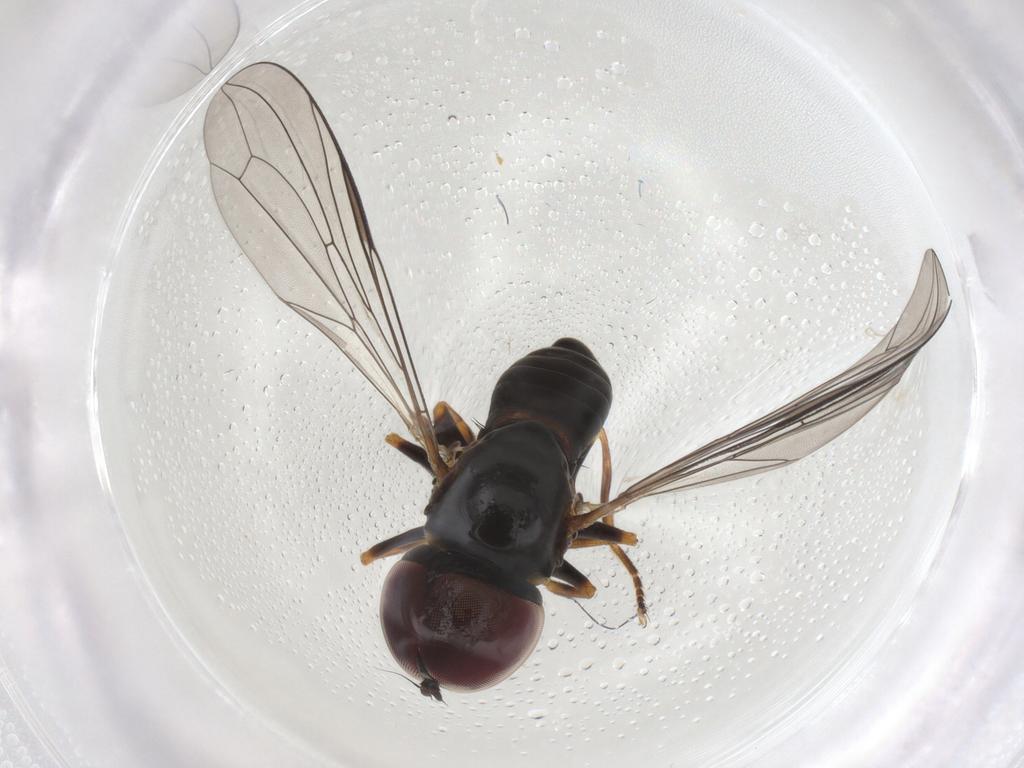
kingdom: Animalia
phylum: Arthropoda
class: Insecta
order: Diptera
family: Pipunculidae
